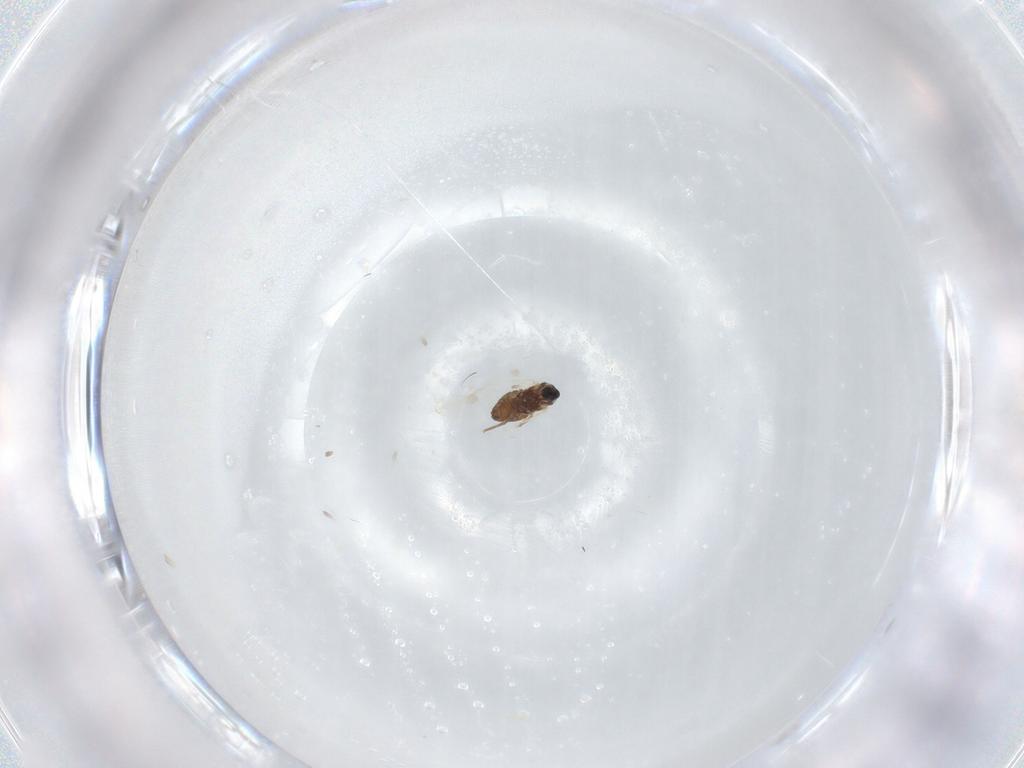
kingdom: Animalia
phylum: Arthropoda
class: Insecta
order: Diptera
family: Cecidomyiidae
